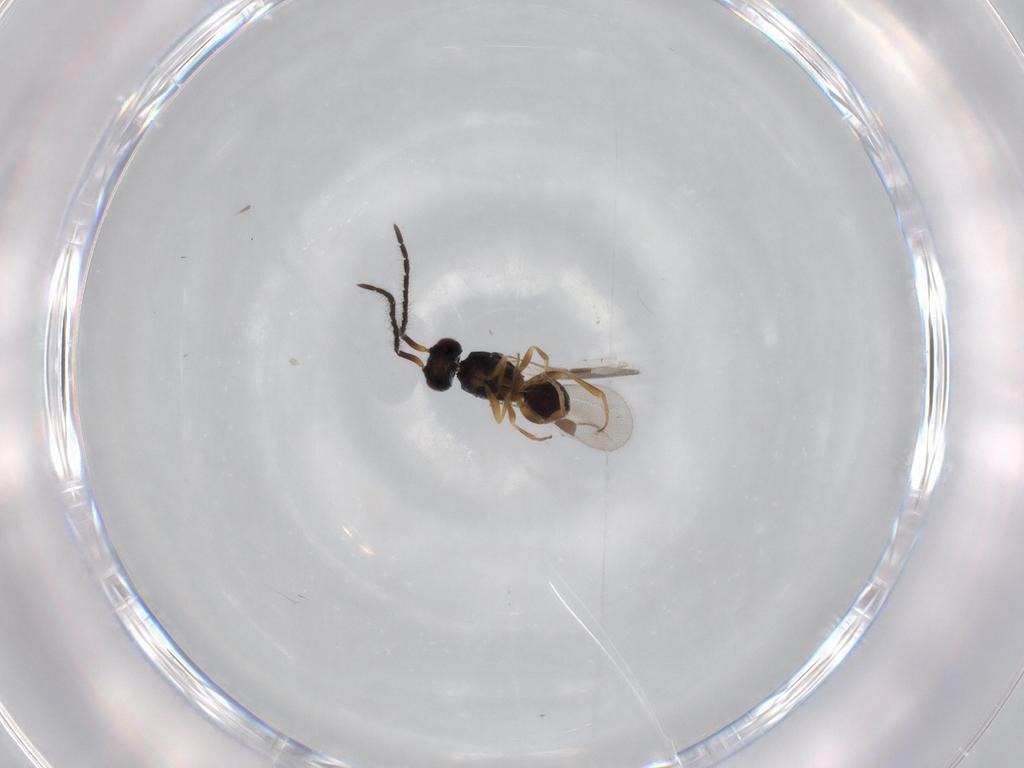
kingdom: Animalia
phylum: Arthropoda
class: Insecta
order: Hymenoptera
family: Megaspilidae
